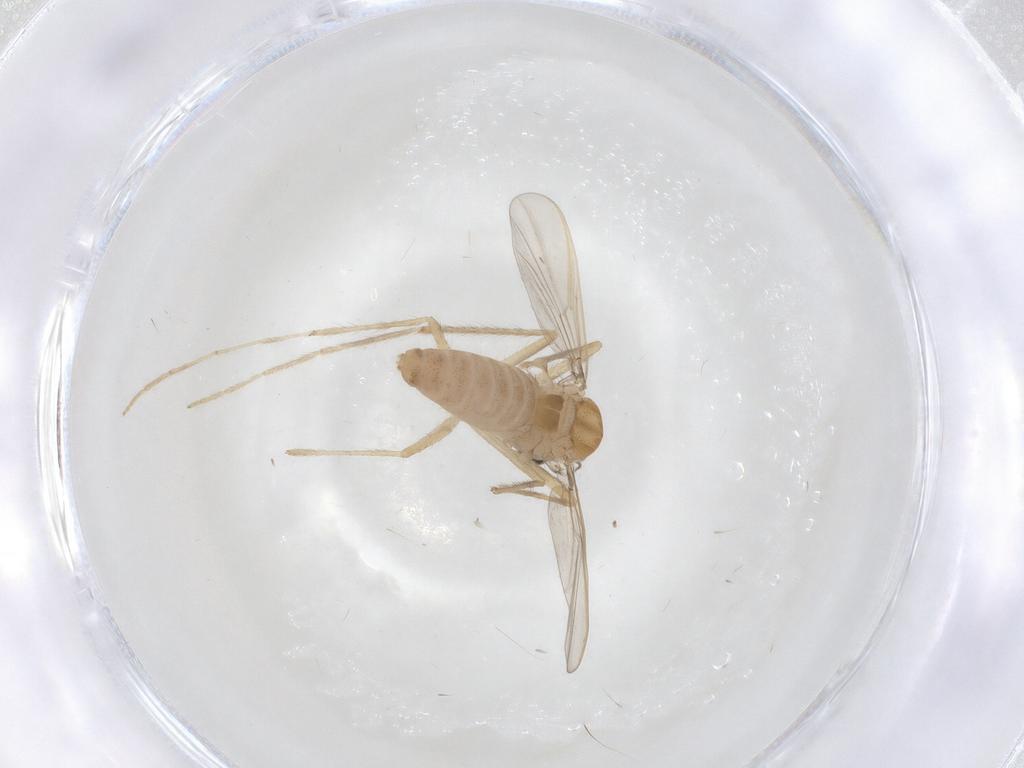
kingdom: Animalia
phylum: Arthropoda
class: Insecta
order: Diptera
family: Chironomidae
